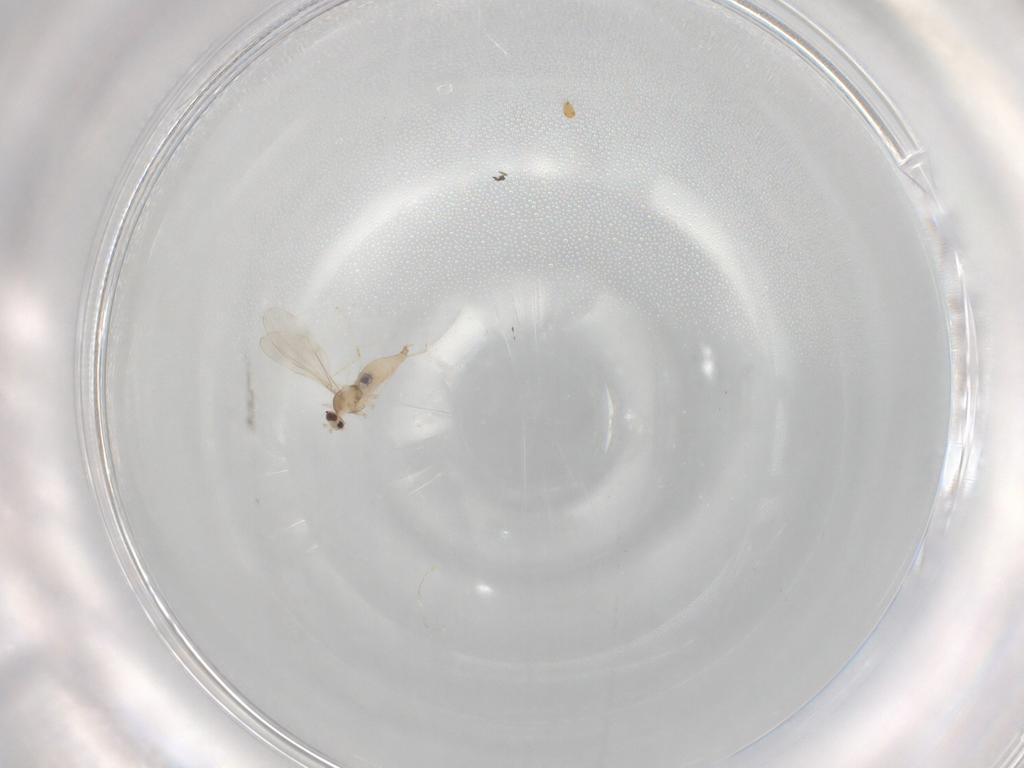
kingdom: Animalia
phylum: Arthropoda
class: Insecta
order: Diptera
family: Cecidomyiidae
